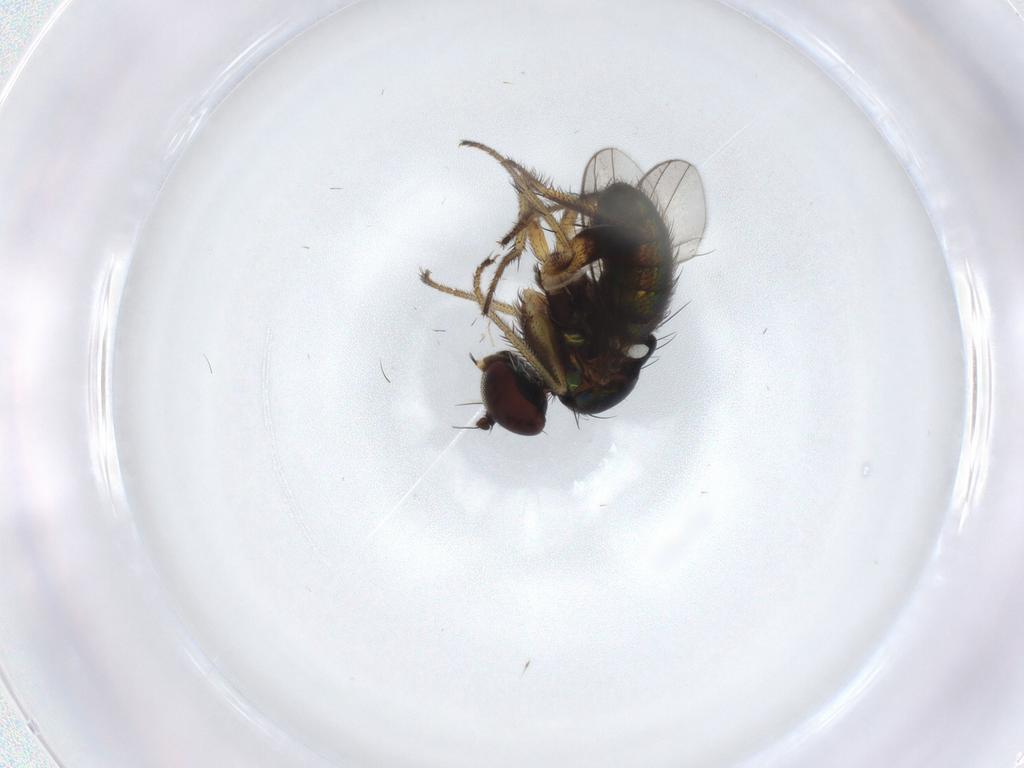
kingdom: Animalia
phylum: Arthropoda
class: Insecta
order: Diptera
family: Dolichopodidae
